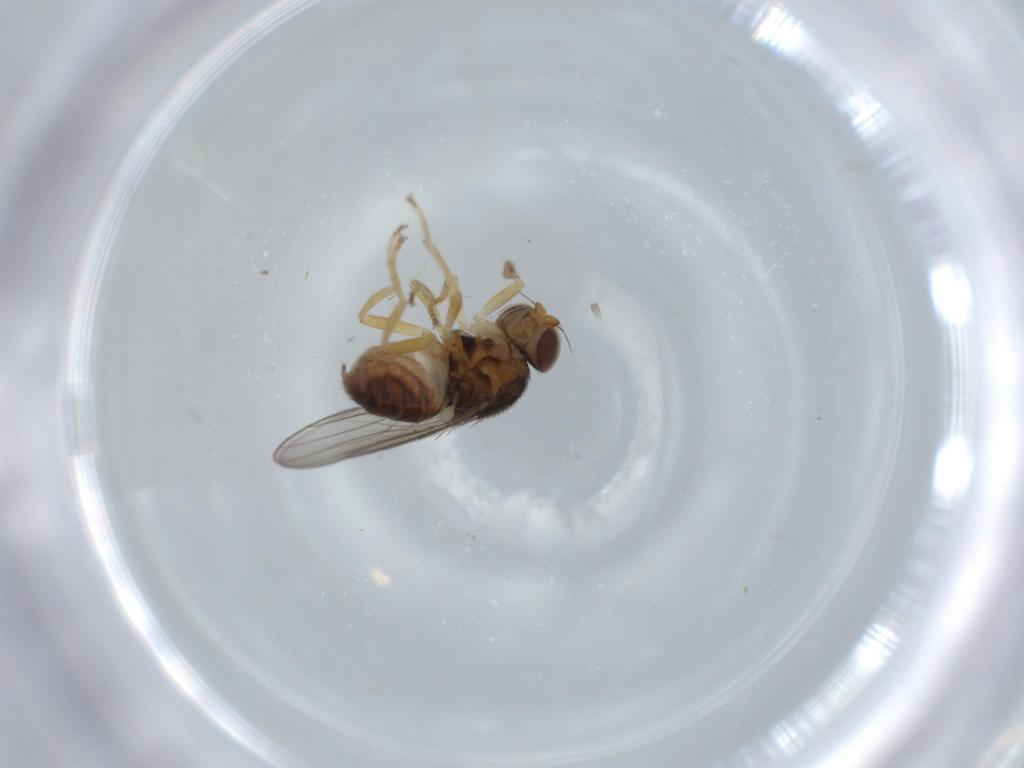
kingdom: Animalia
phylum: Arthropoda
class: Insecta
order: Diptera
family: Chloropidae
